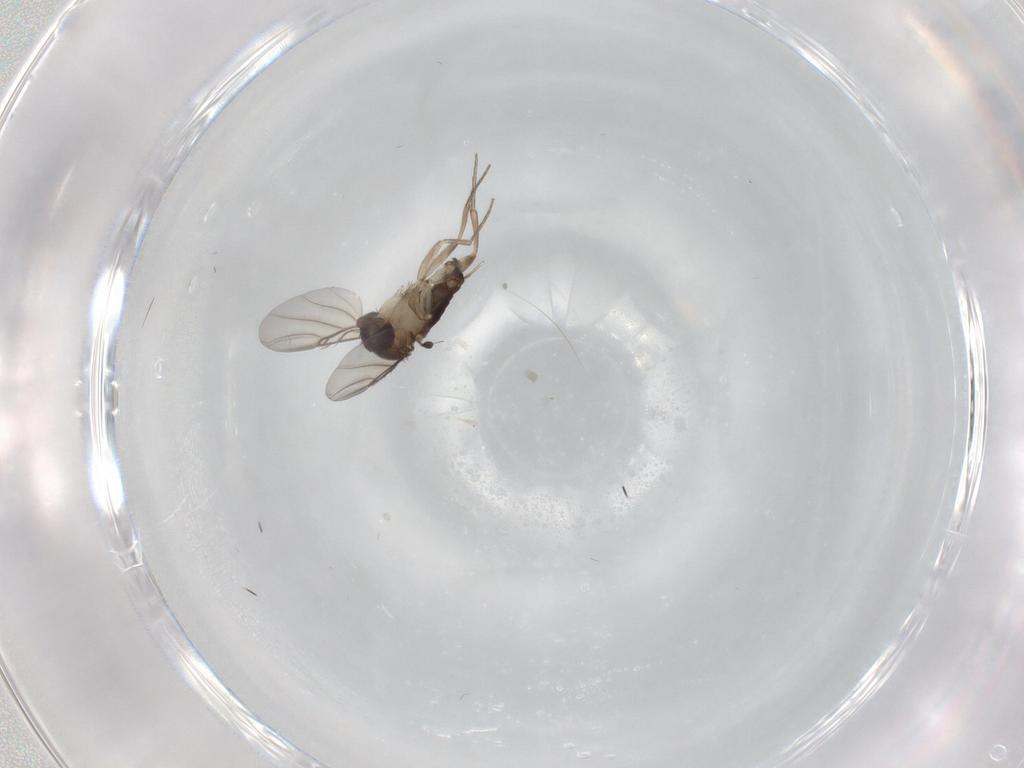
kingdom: Animalia
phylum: Arthropoda
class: Insecta
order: Diptera
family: Phoridae
